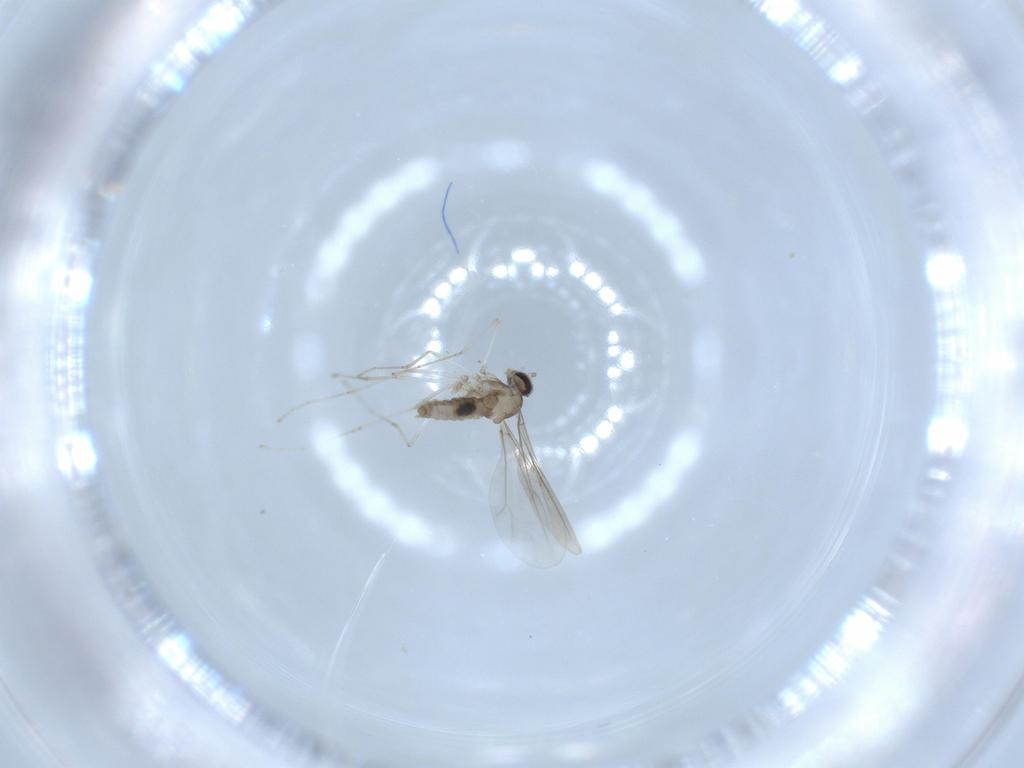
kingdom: Animalia
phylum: Arthropoda
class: Insecta
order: Diptera
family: Cecidomyiidae
